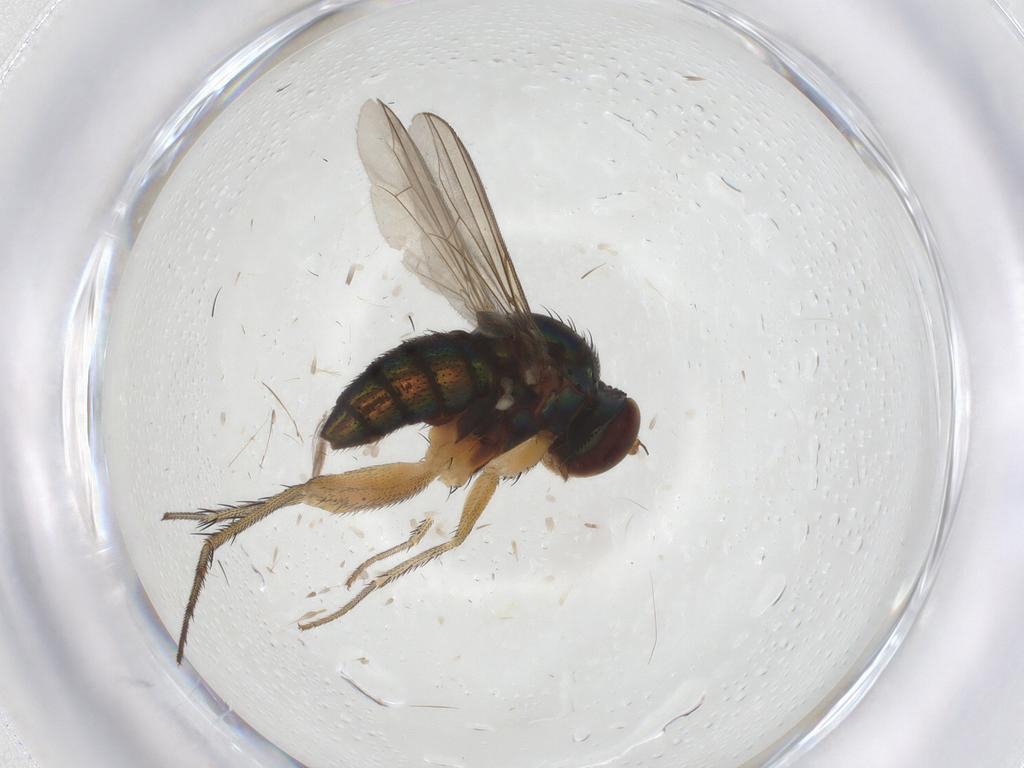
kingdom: Animalia
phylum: Arthropoda
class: Insecta
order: Diptera
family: Dolichopodidae
